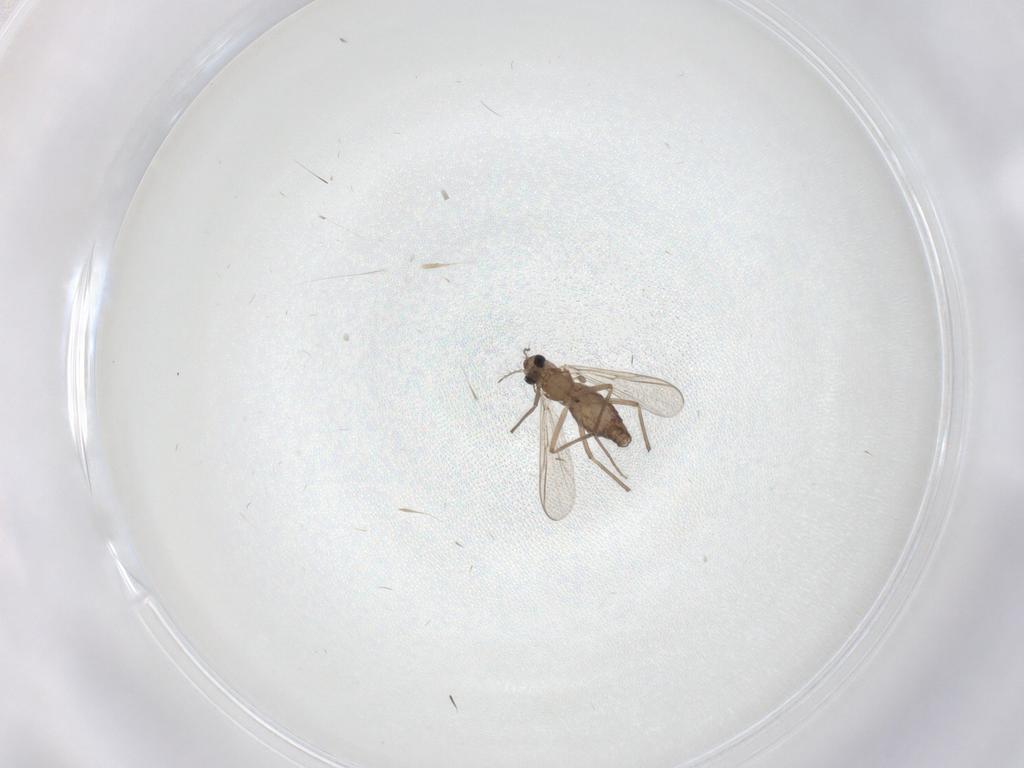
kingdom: Animalia
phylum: Arthropoda
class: Insecta
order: Diptera
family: Chironomidae
